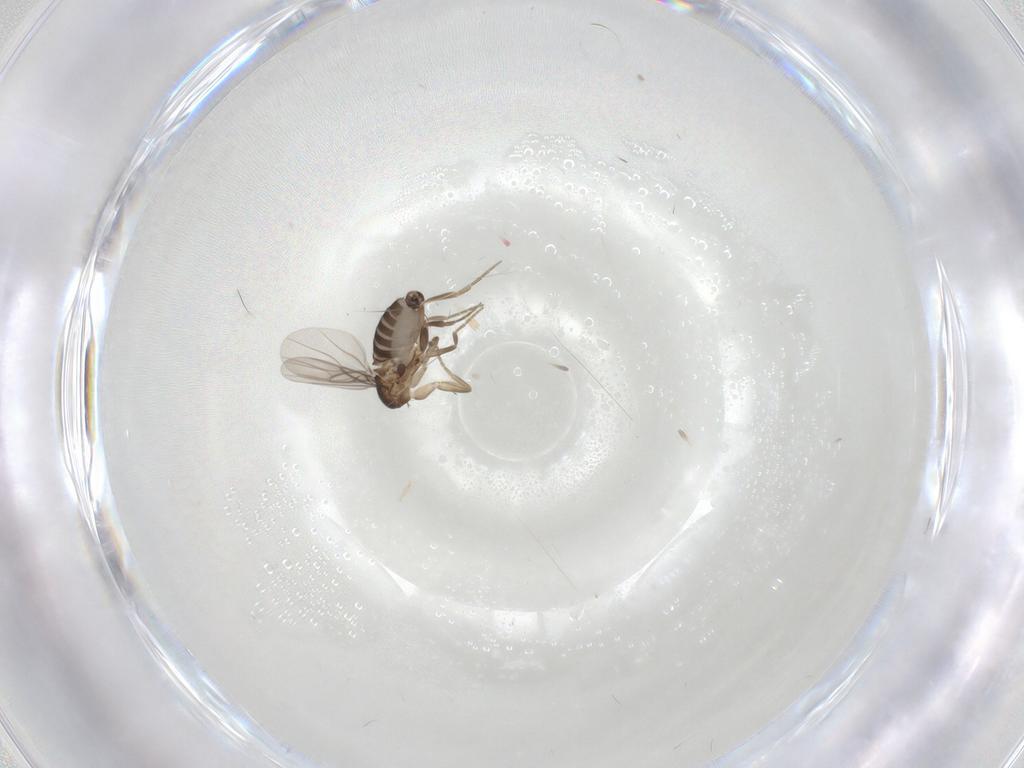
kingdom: Animalia
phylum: Arthropoda
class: Insecta
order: Diptera
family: Phoridae
